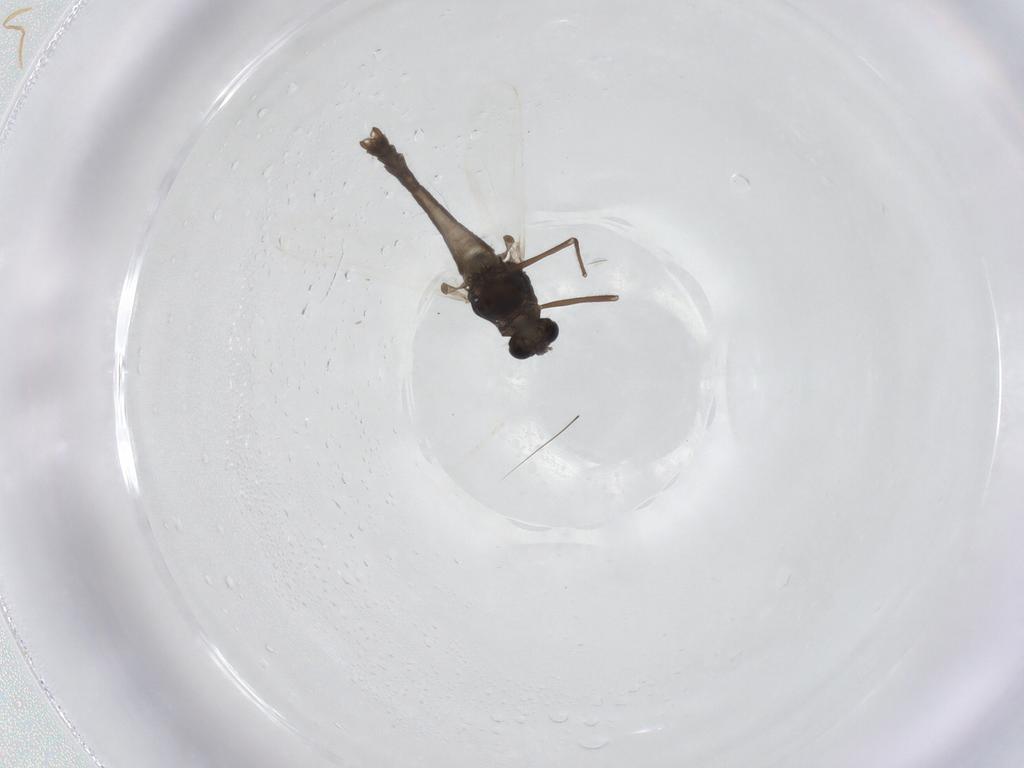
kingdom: Animalia
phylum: Arthropoda
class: Insecta
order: Diptera
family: Chironomidae
